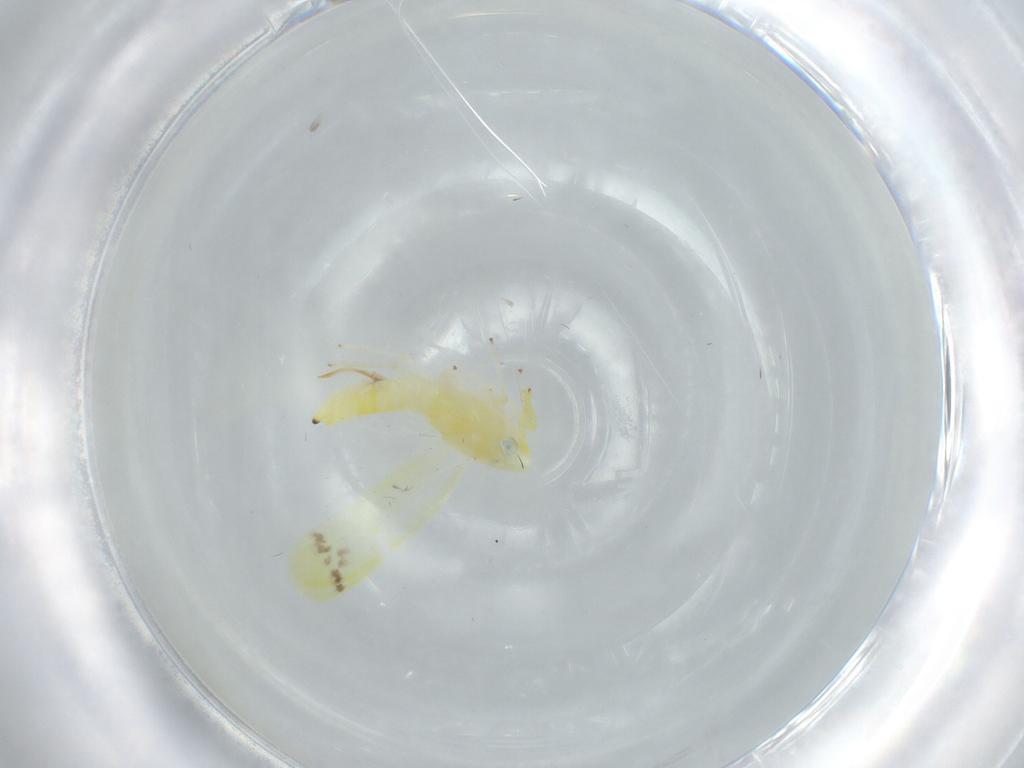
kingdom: Animalia
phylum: Arthropoda
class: Insecta
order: Hemiptera
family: Cicadellidae
